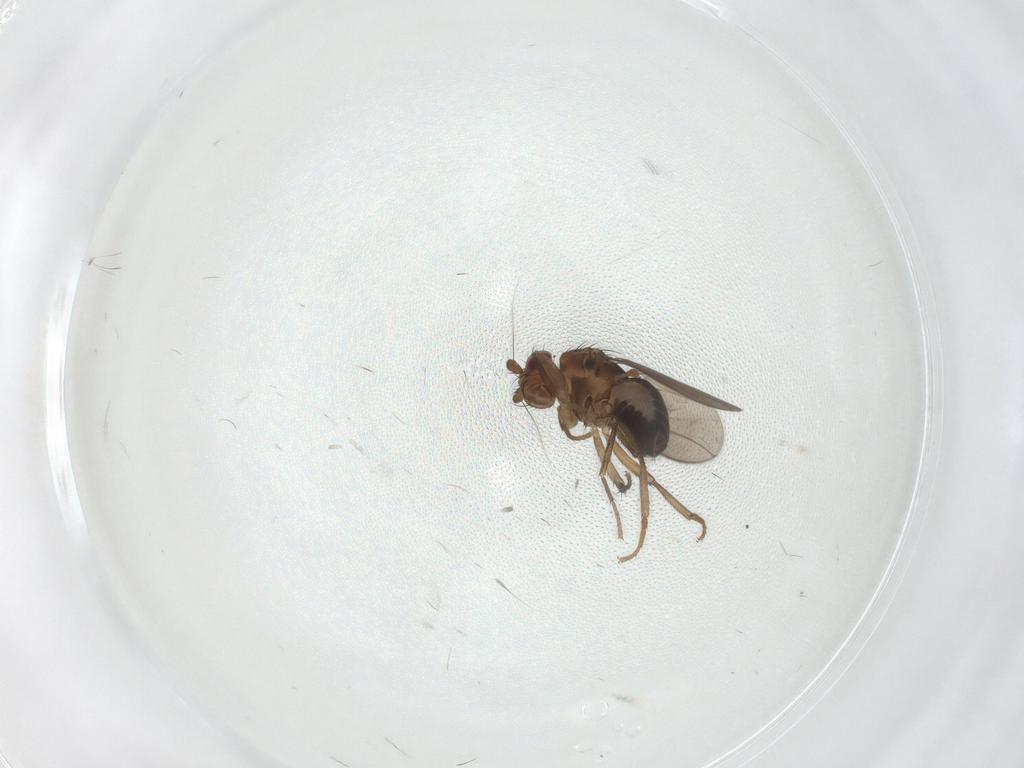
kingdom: Animalia
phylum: Arthropoda
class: Insecta
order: Diptera
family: Sphaeroceridae
